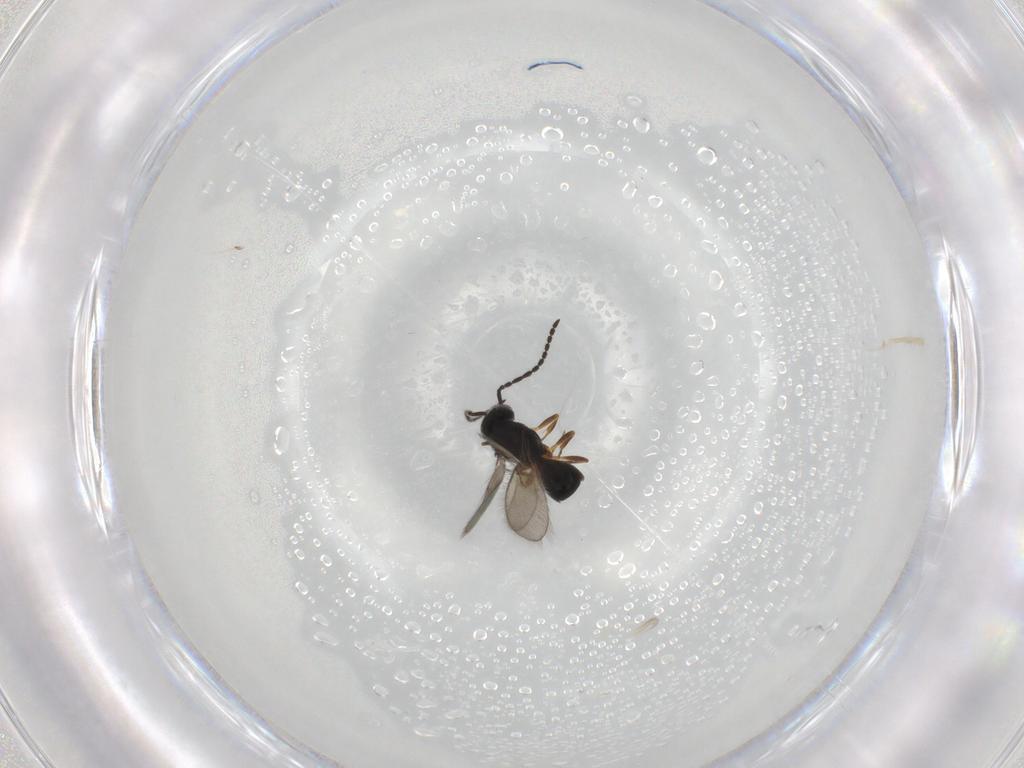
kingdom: Animalia
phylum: Arthropoda
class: Insecta
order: Hymenoptera
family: Scelionidae
